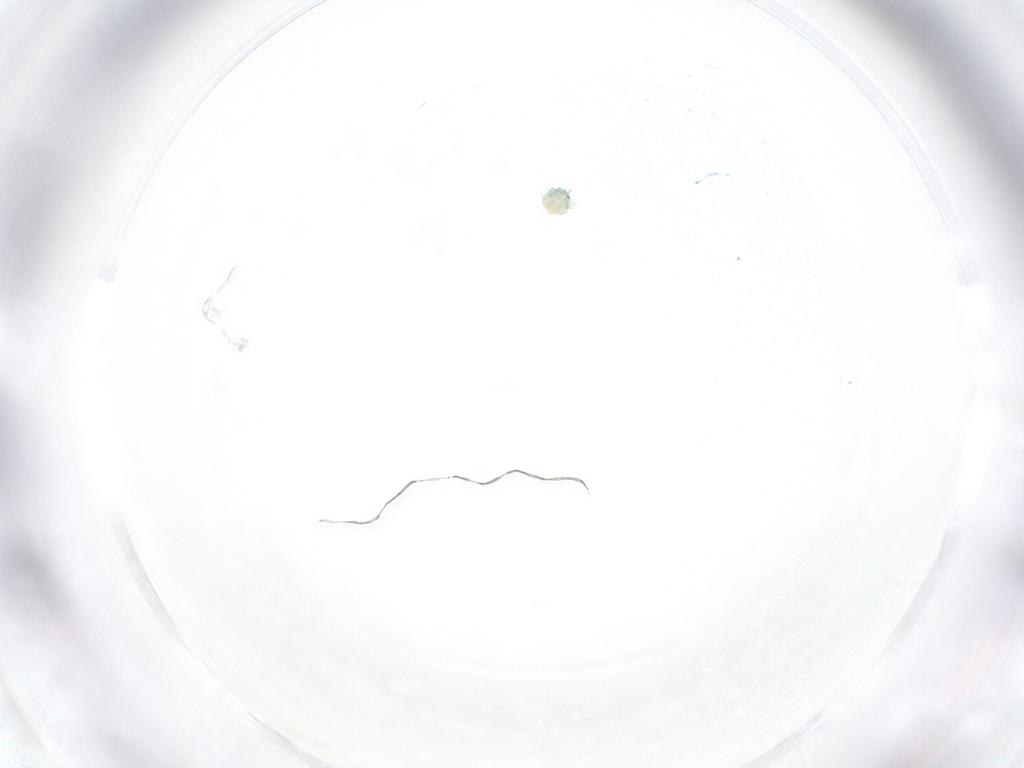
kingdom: Animalia
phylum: Arthropoda
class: Arachnida
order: Trombidiformes
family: Arrenuridae
